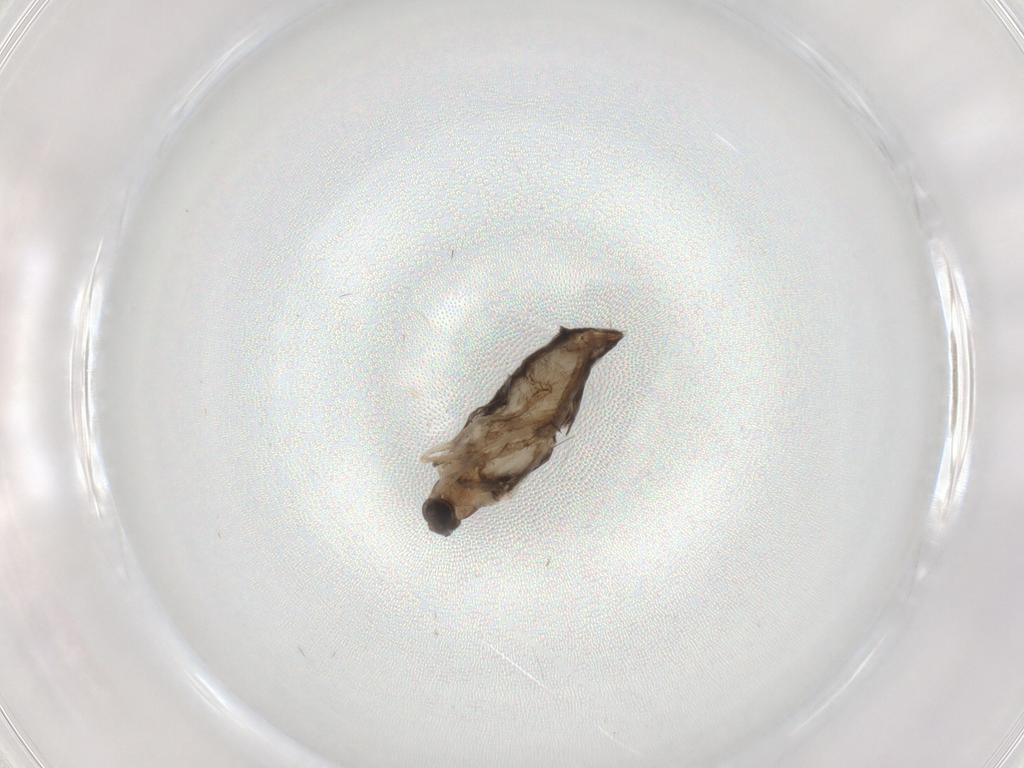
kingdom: Animalia
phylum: Arthropoda
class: Insecta
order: Diptera
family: Cecidomyiidae
